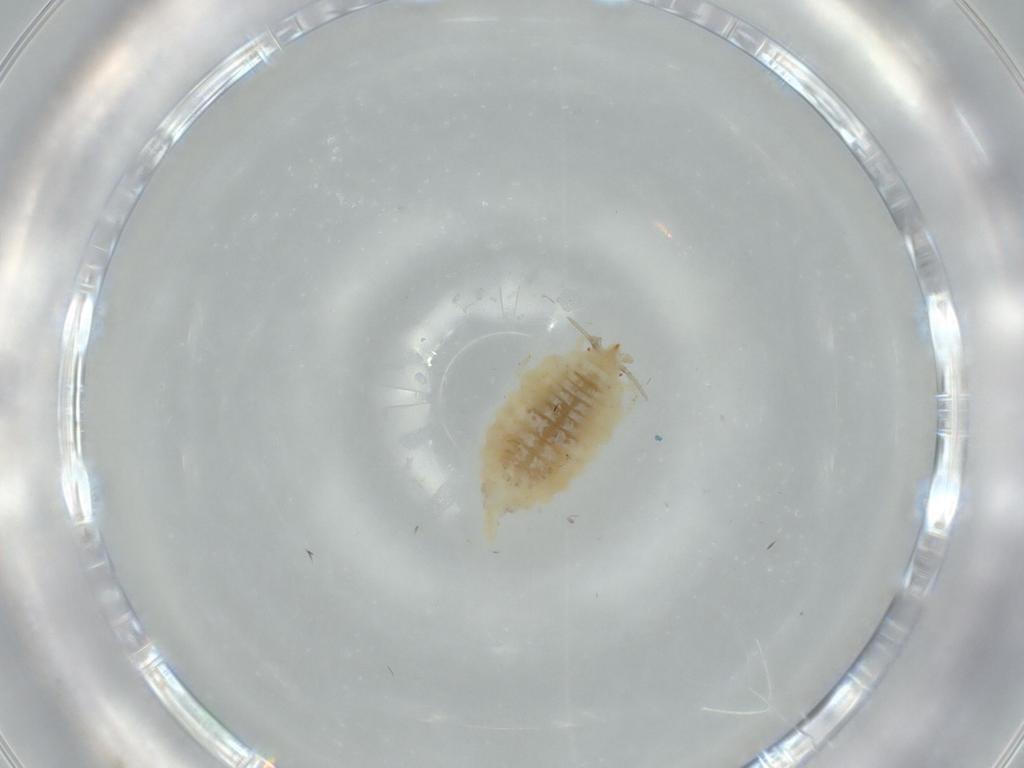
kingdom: Animalia
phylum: Arthropoda
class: Insecta
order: Neuroptera
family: Coniopterygidae
